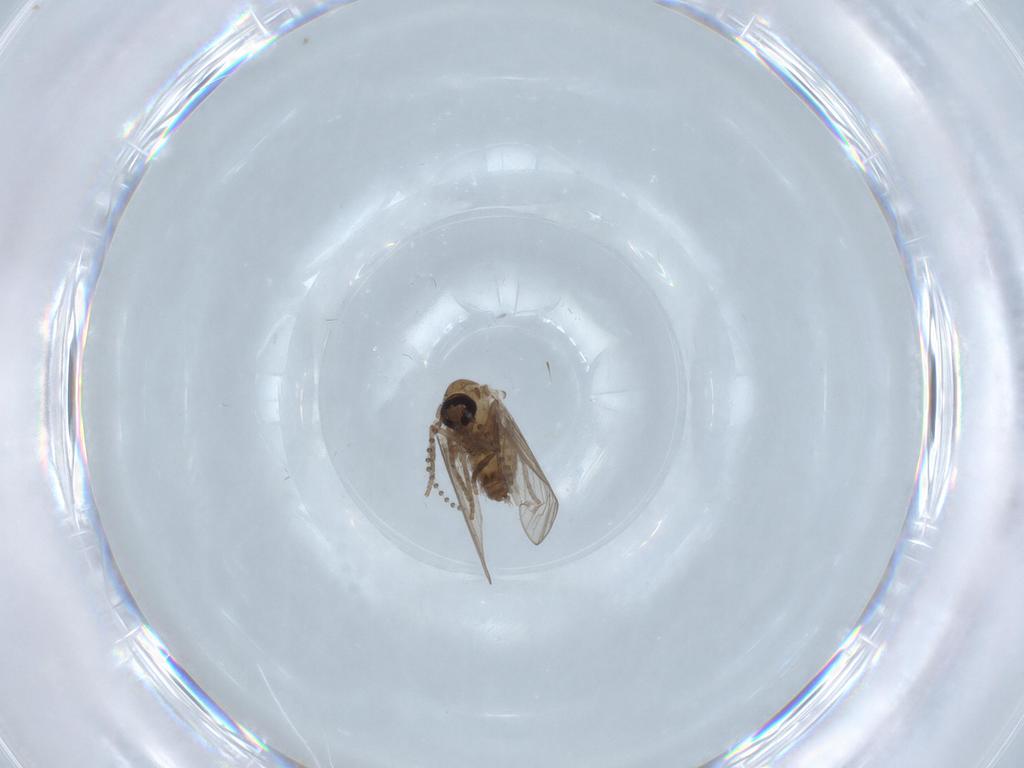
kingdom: Animalia
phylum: Arthropoda
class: Insecta
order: Diptera
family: Psychodidae
